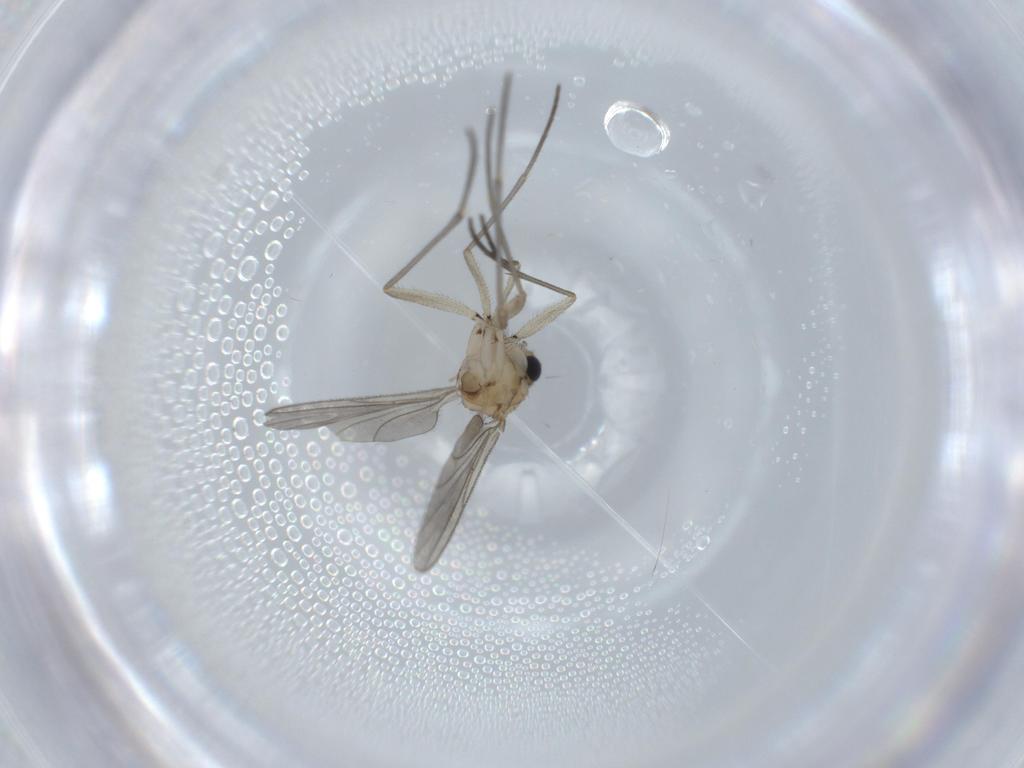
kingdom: Animalia
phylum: Arthropoda
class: Insecta
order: Diptera
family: Sciaridae
